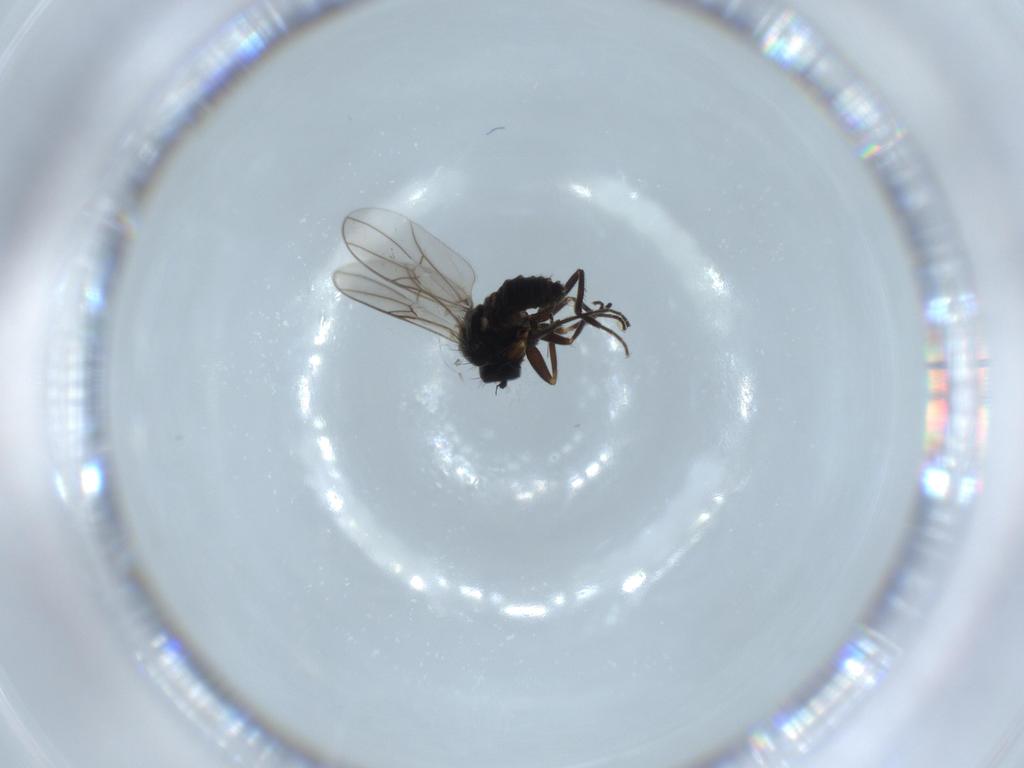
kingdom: Animalia
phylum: Arthropoda
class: Insecta
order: Diptera
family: Hybotidae
